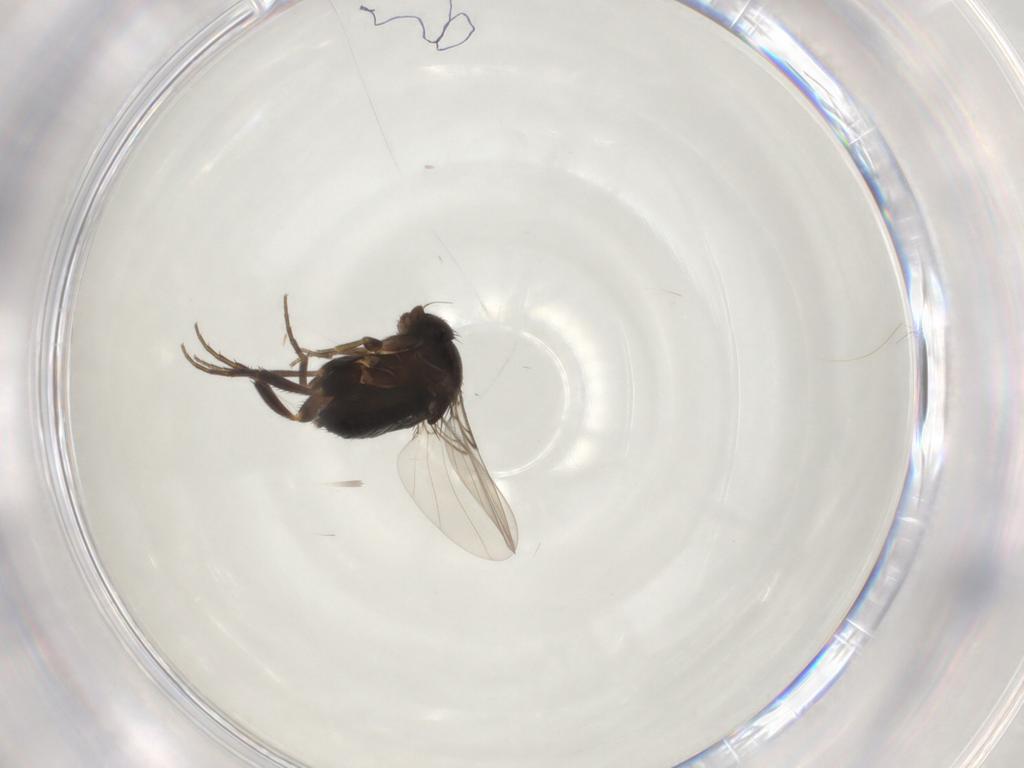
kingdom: Animalia
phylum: Arthropoda
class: Insecta
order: Diptera
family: Phoridae
